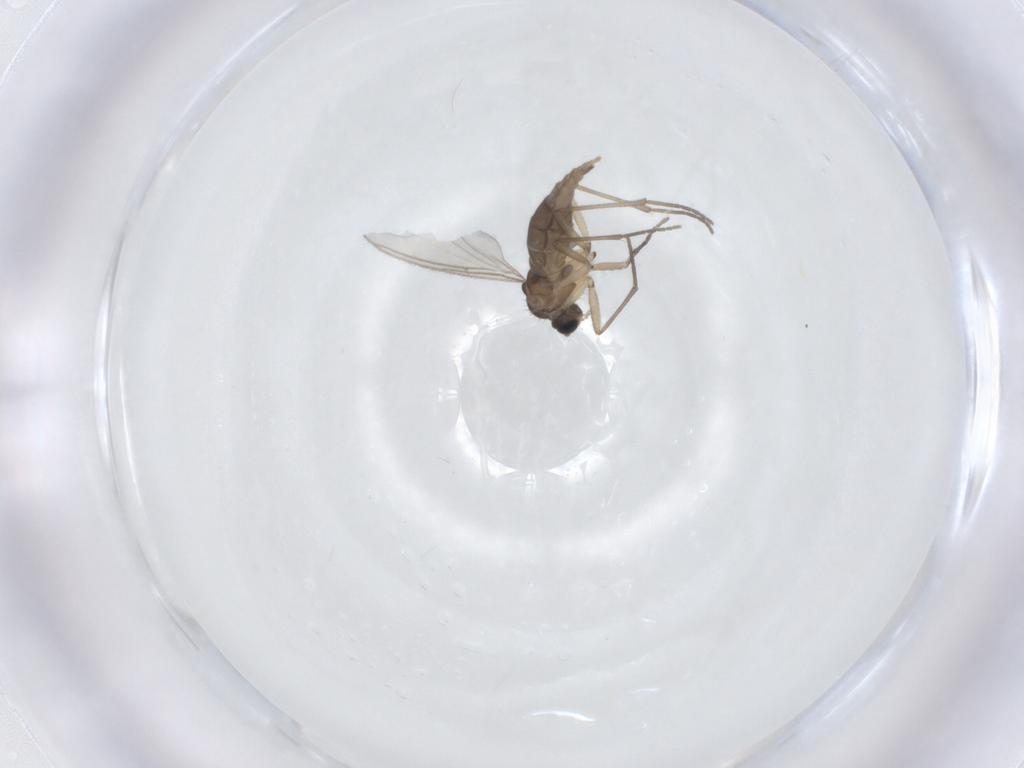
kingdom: Animalia
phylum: Arthropoda
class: Insecta
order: Diptera
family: Sciaridae
